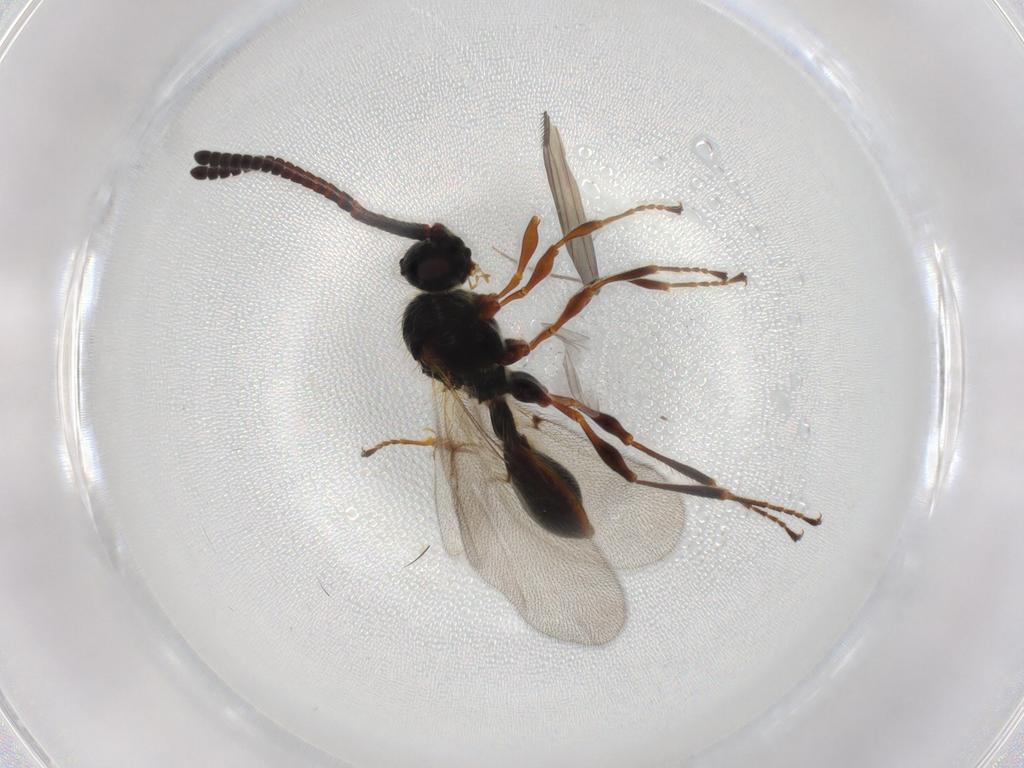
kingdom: Animalia
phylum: Arthropoda
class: Insecta
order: Hymenoptera
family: Diapriidae
